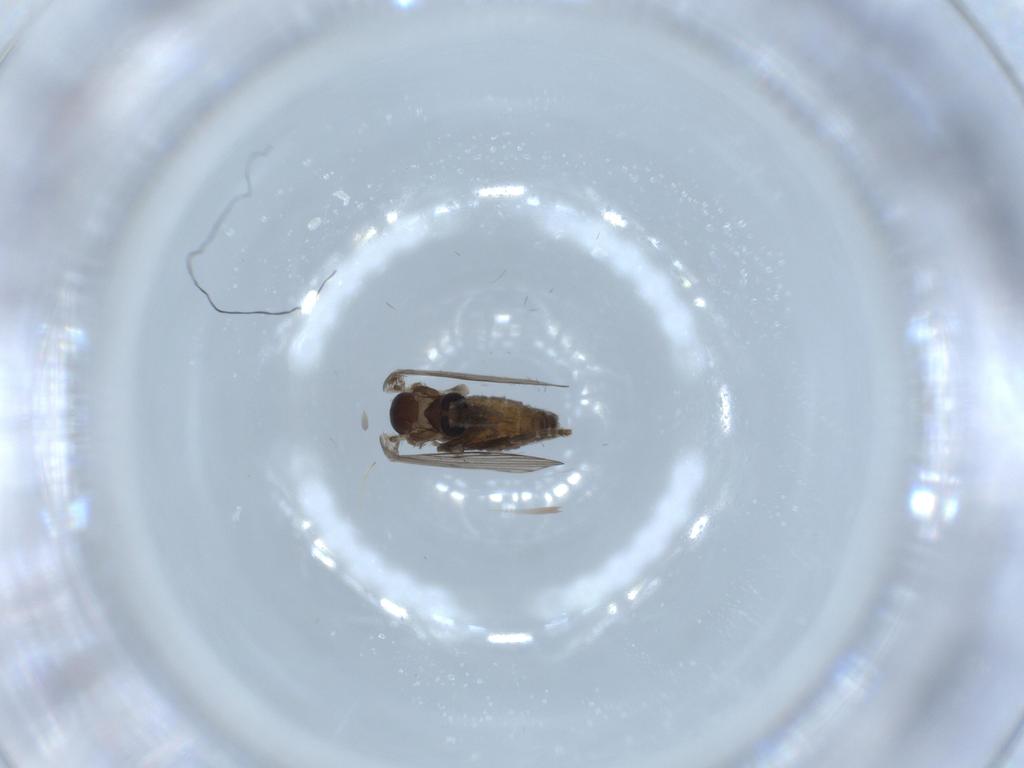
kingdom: Animalia
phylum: Arthropoda
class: Insecta
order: Diptera
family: Psychodidae
